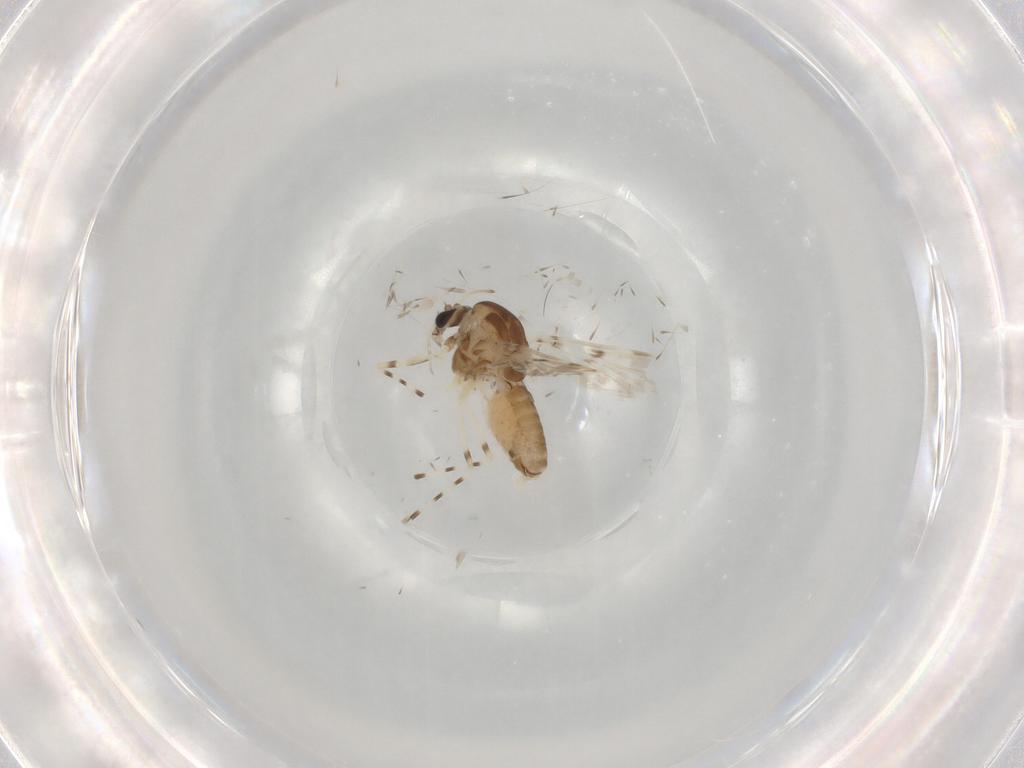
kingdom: Animalia
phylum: Arthropoda
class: Insecta
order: Diptera
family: Chironomidae
